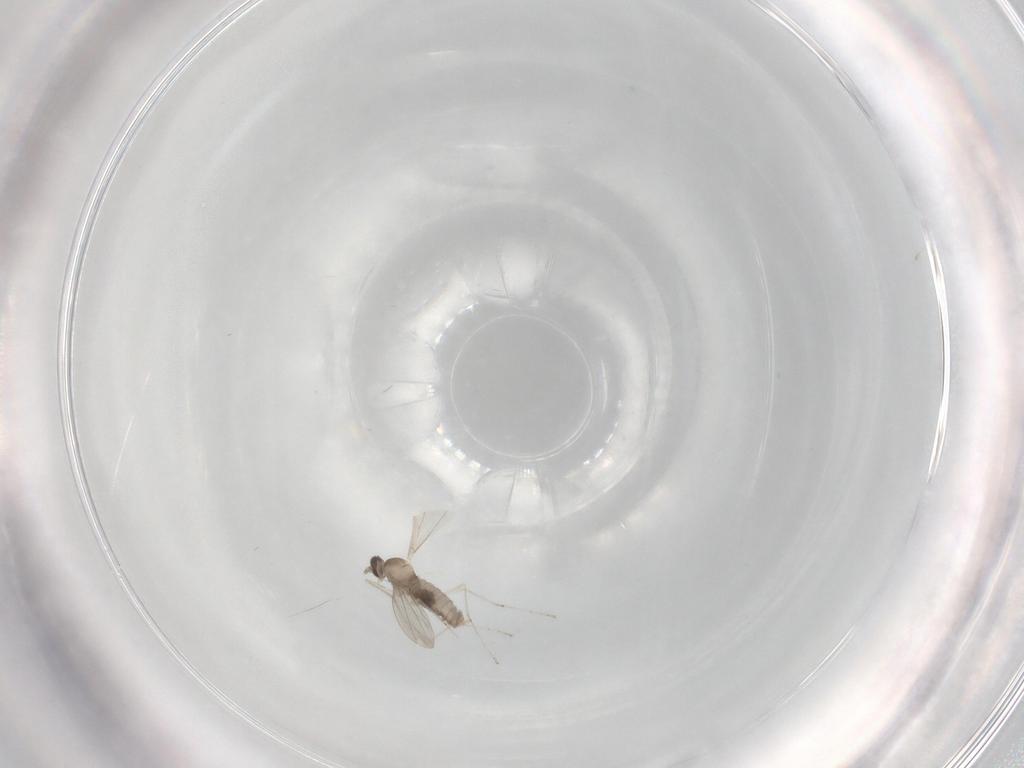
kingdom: Animalia
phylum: Arthropoda
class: Insecta
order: Diptera
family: Cecidomyiidae
